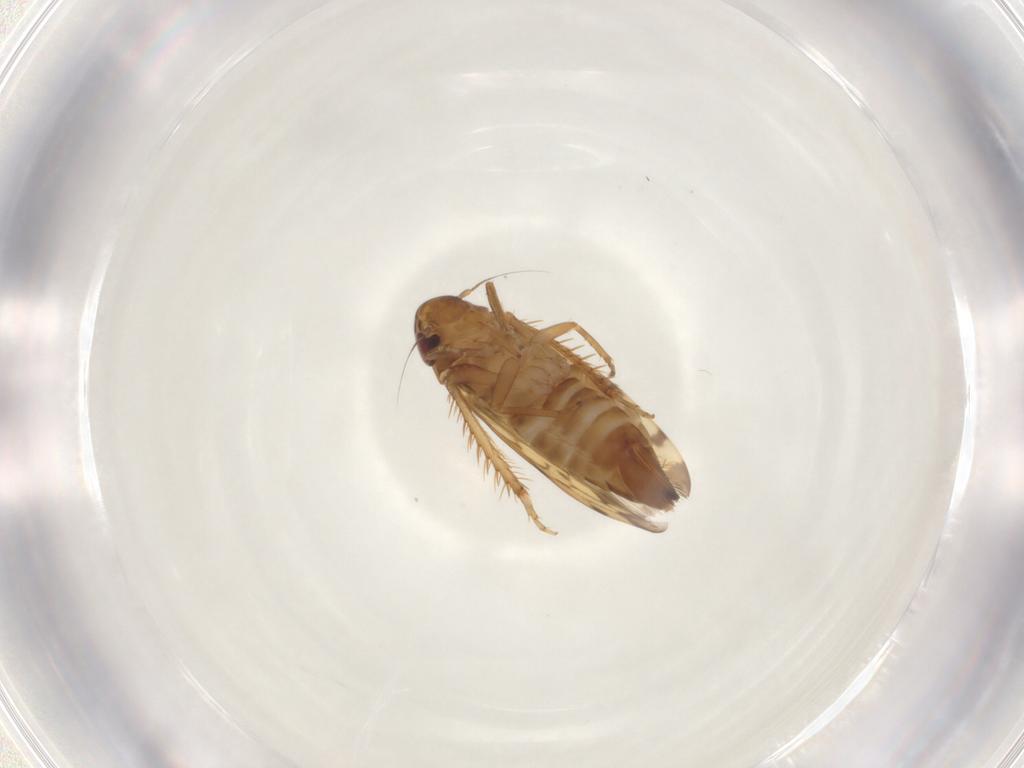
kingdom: Animalia
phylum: Arthropoda
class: Insecta
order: Hemiptera
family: Cicadellidae
